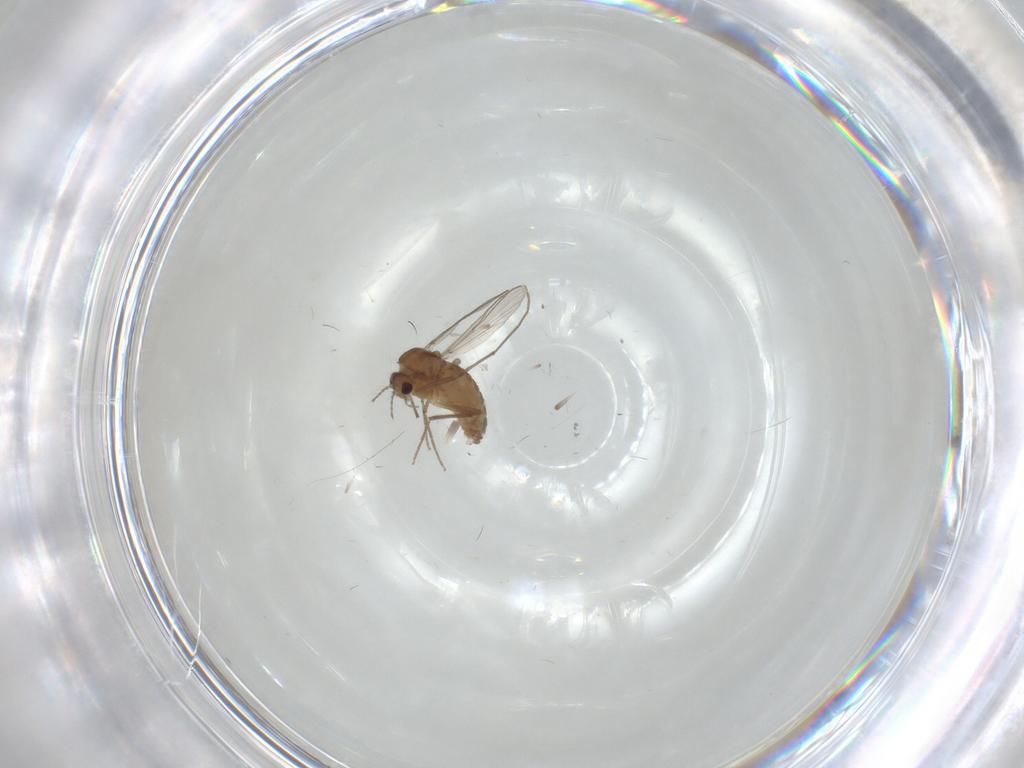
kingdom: Animalia
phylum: Arthropoda
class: Insecta
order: Diptera
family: Chironomidae
